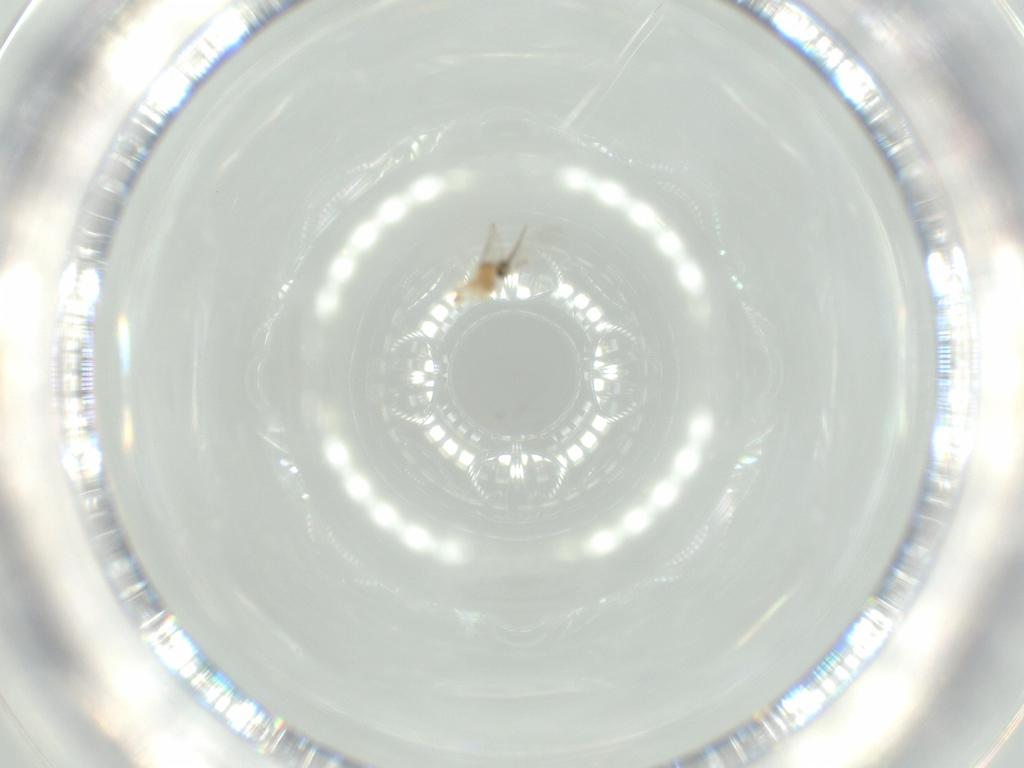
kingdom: Animalia
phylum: Arthropoda
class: Insecta
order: Diptera
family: Cecidomyiidae
